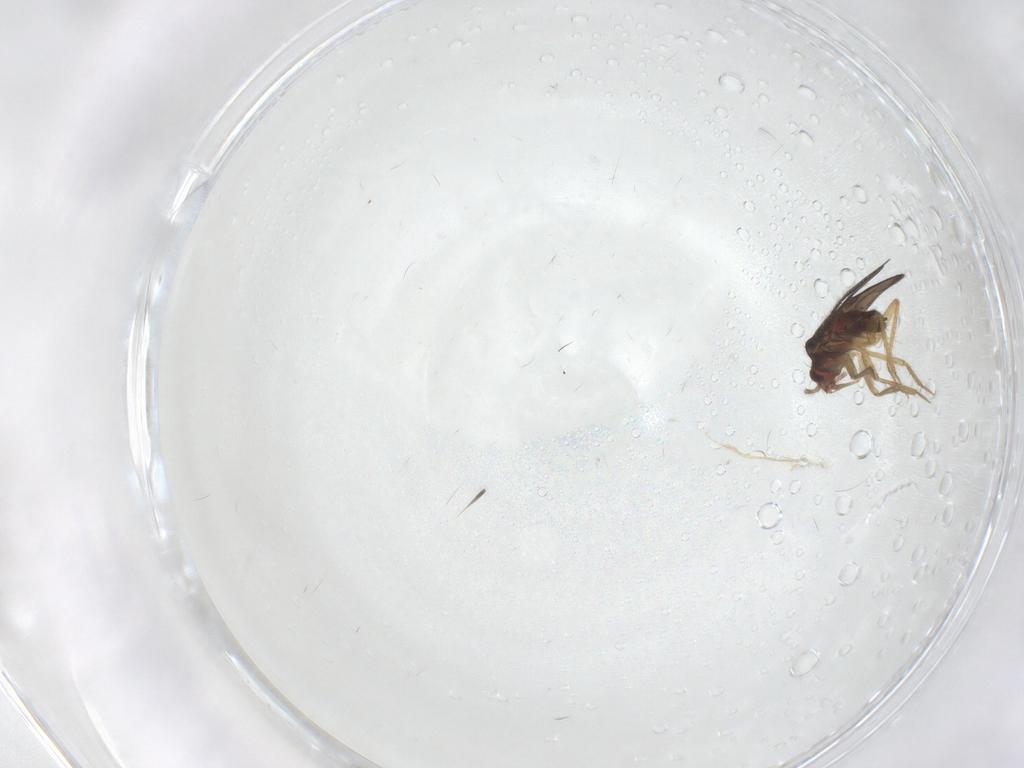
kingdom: Animalia
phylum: Arthropoda
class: Insecta
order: Hemiptera
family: Ceratocombidae
